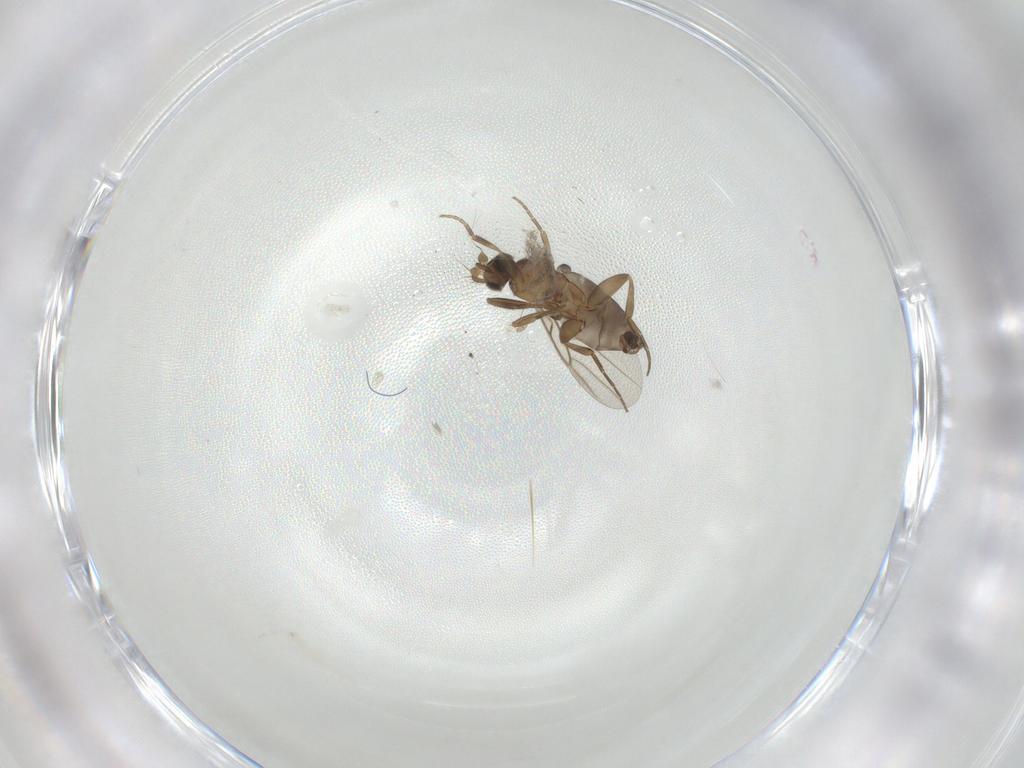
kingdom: Animalia
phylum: Arthropoda
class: Insecta
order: Diptera
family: Phoridae
